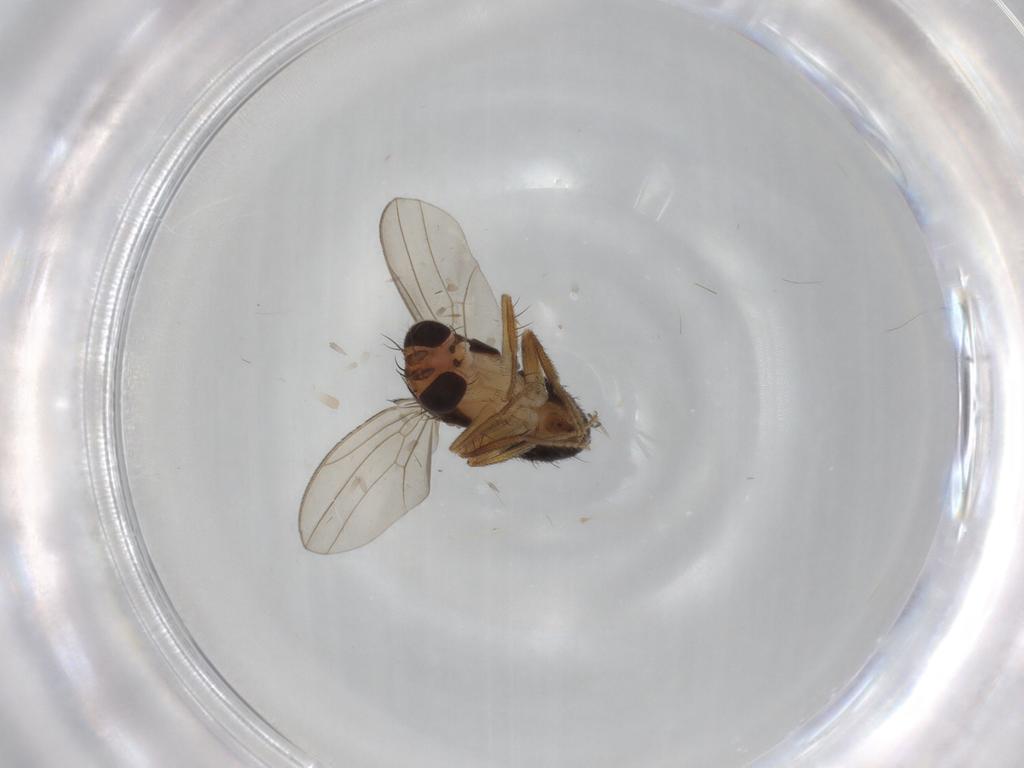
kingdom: Animalia
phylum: Arthropoda
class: Insecta
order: Diptera
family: Drosophilidae
